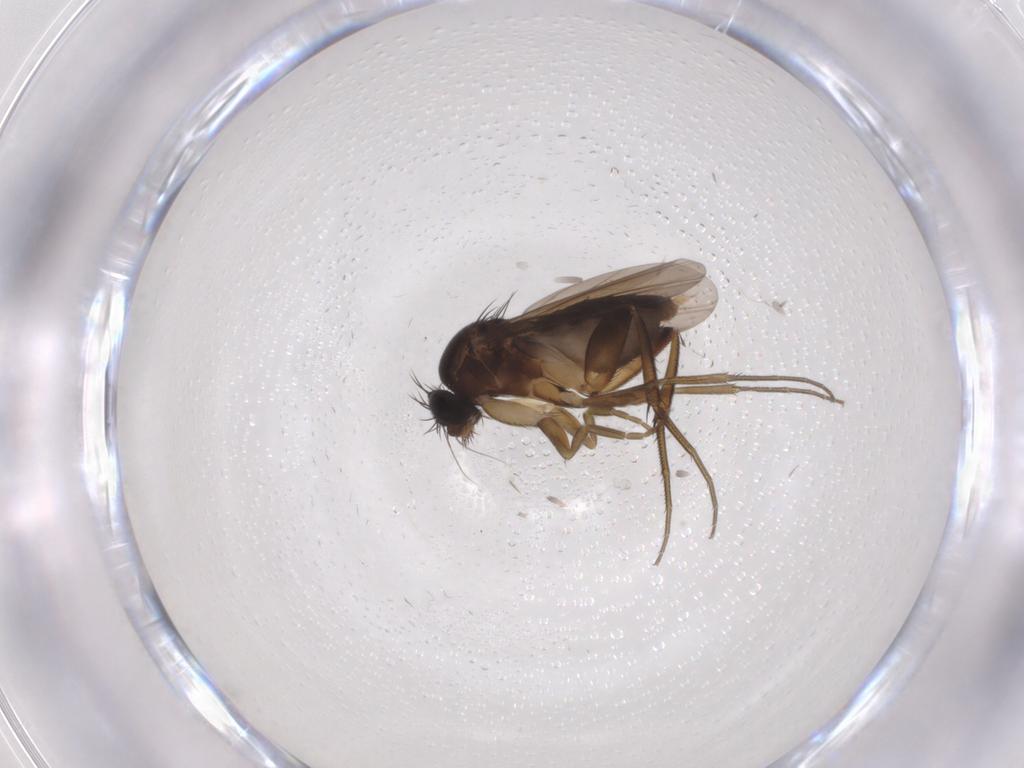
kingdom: Animalia
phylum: Arthropoda
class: Insecta
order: Diptera
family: Phoridae
